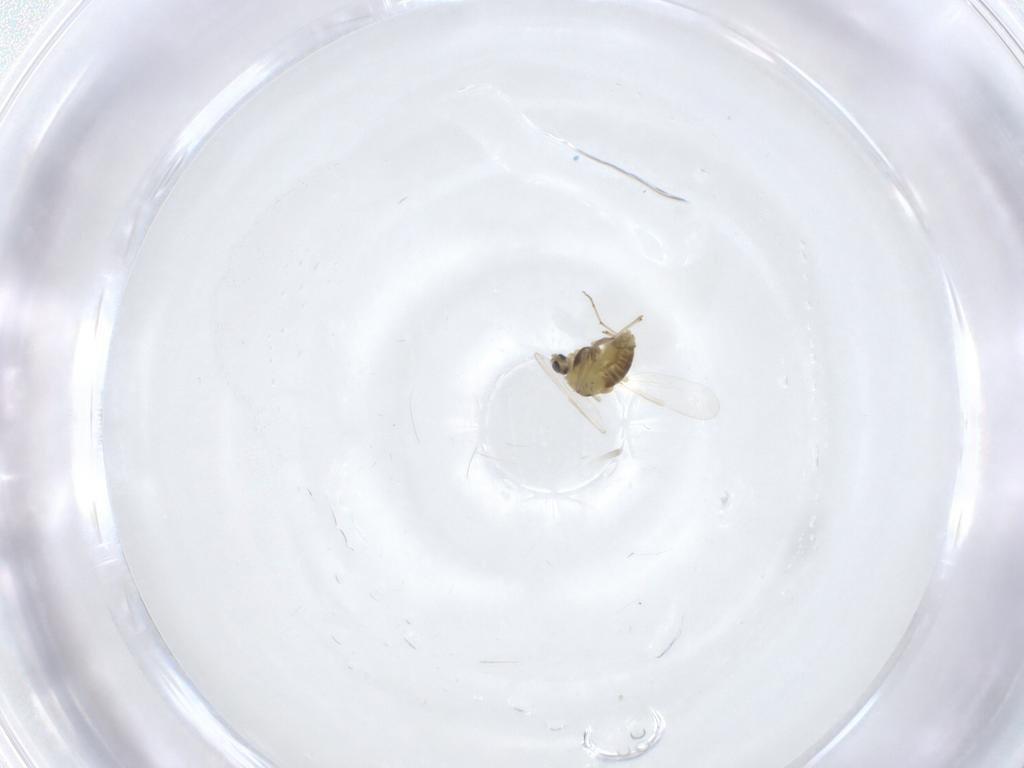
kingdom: Animalia
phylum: Arthropoda
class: Insecta
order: Diptera
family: Chironomidae
